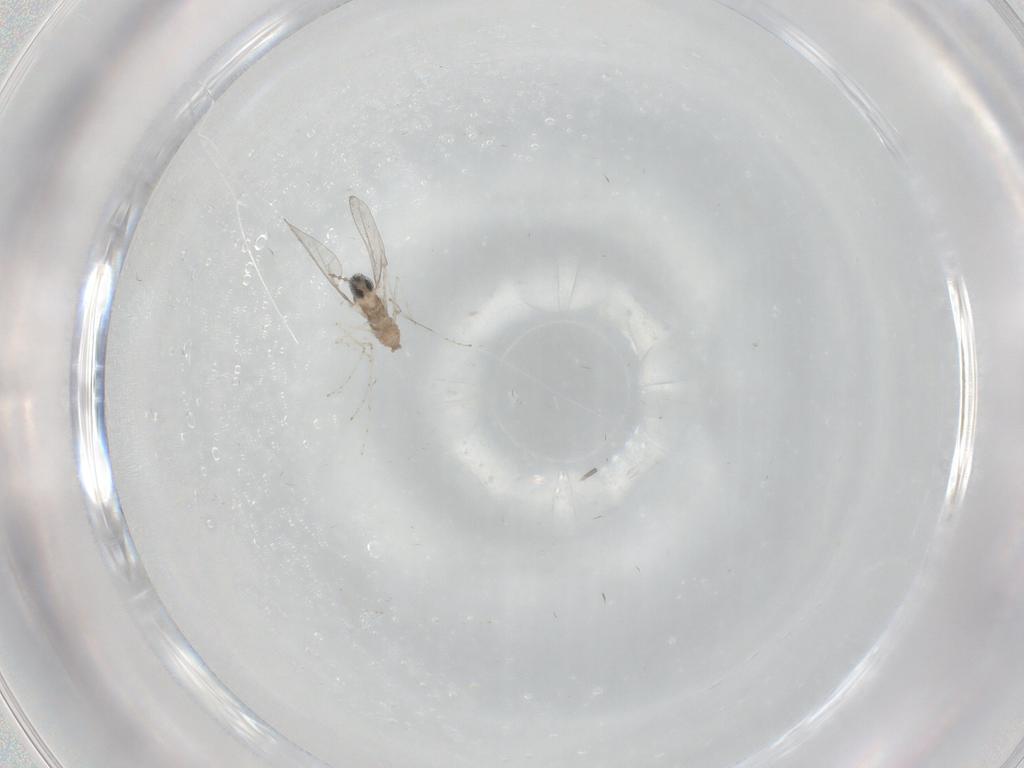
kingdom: Animalia
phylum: Arthropoda
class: Insecta
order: Diptera
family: Cecidomyiidae
